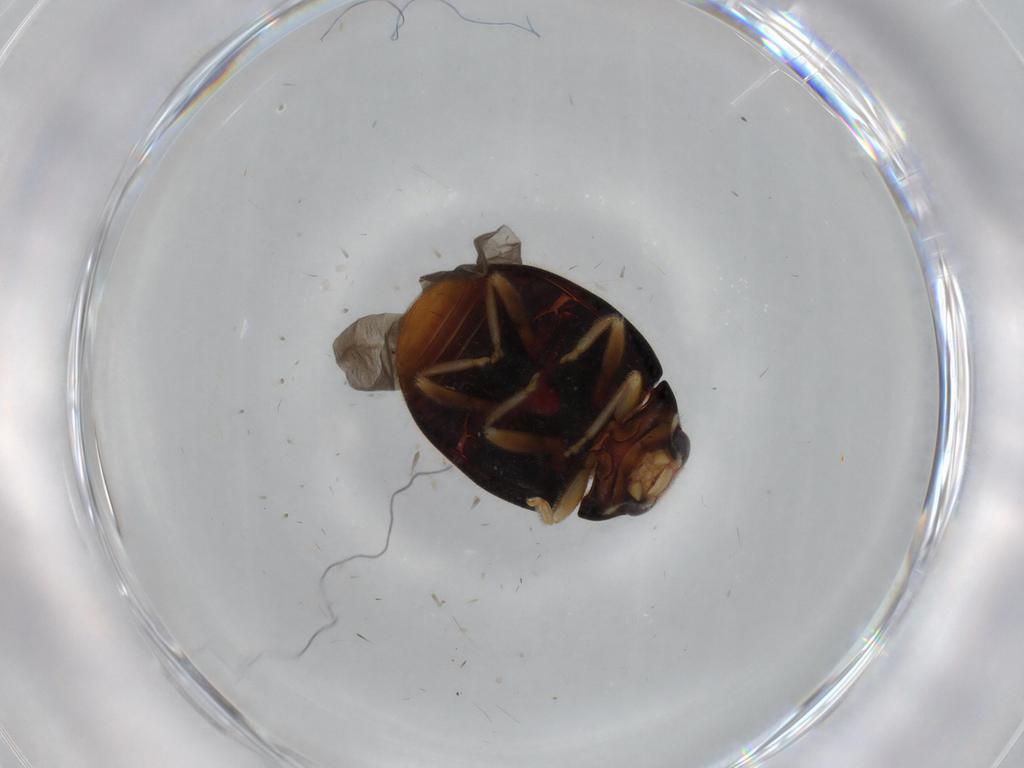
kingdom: Animalia
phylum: Arthropoda
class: Insecta
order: Coleoptera
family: Coccinellidae
